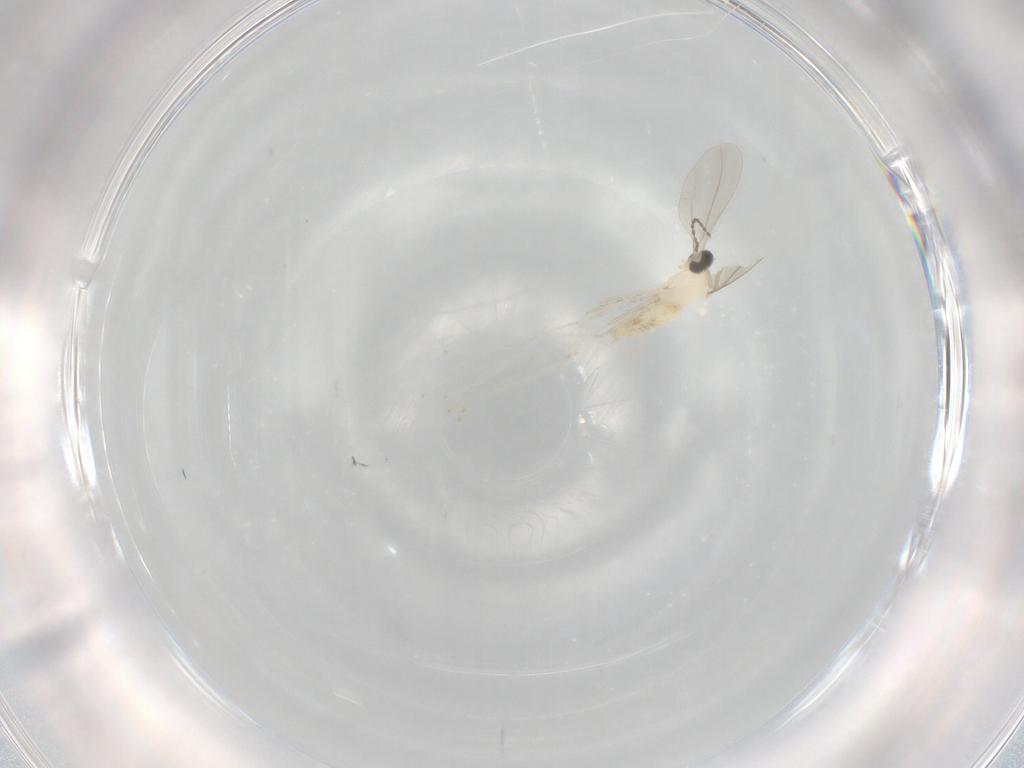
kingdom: Animalia
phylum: Arthropoda
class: Insecta
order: Diptera
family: Cecidomyiidae
